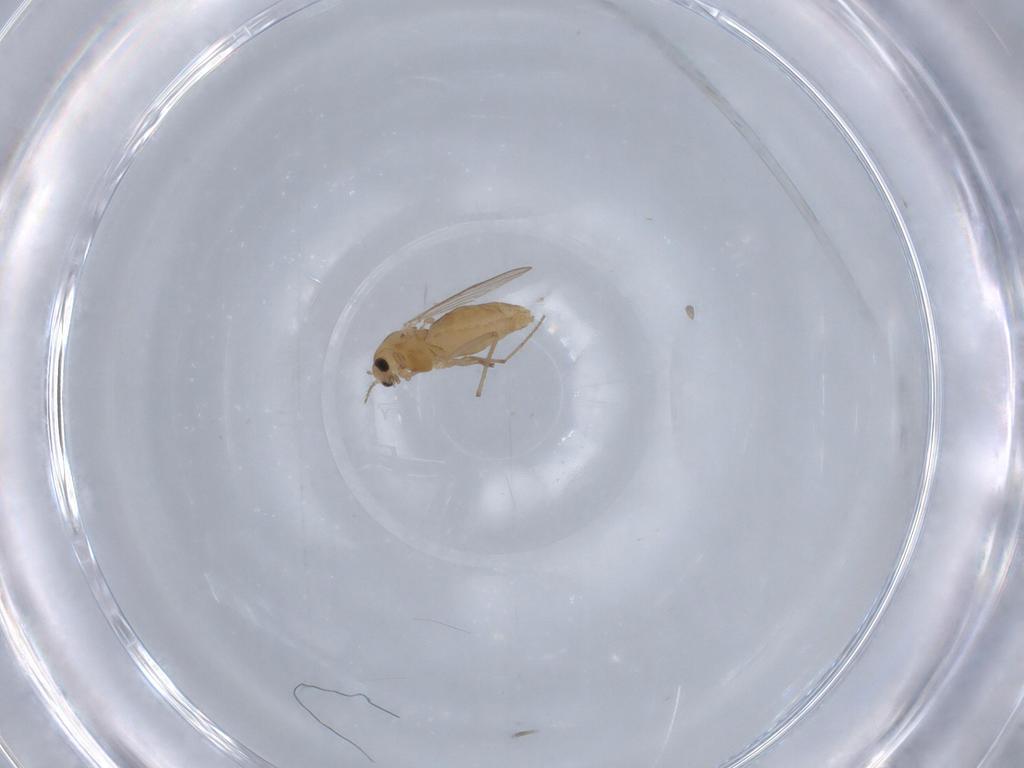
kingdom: Animalia
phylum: Arthropoda
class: Insecta
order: Diptera
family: Chironomidae
